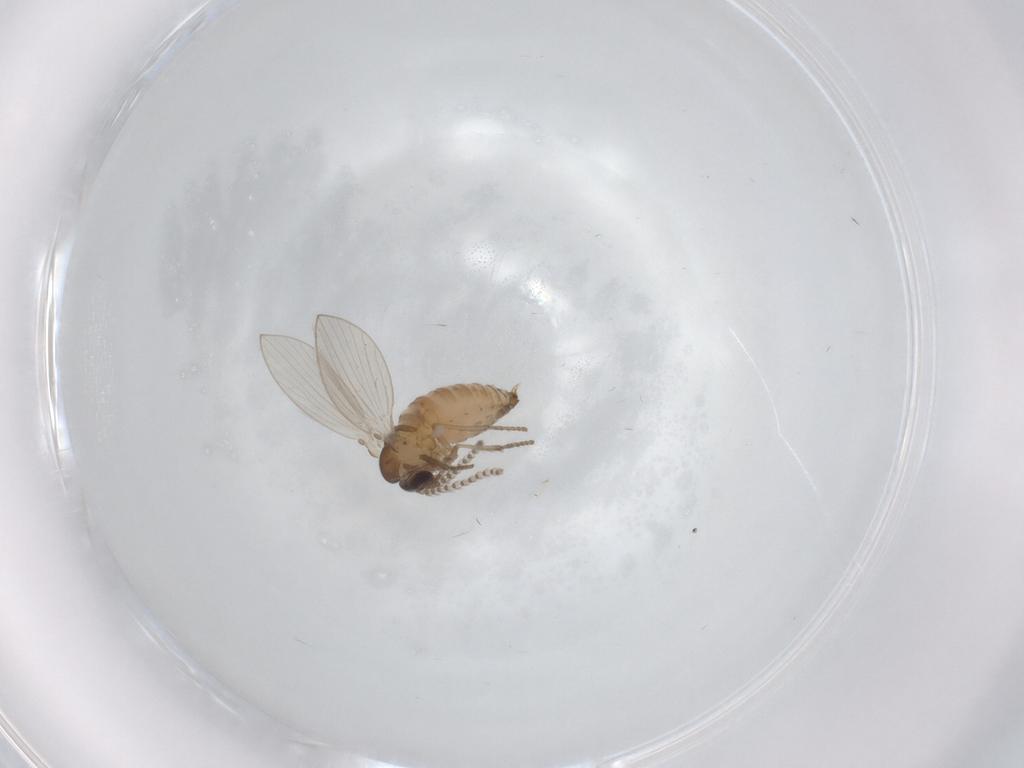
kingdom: Animalia
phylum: Arthropoda
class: Insecta
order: Diptera
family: Psychodidae
